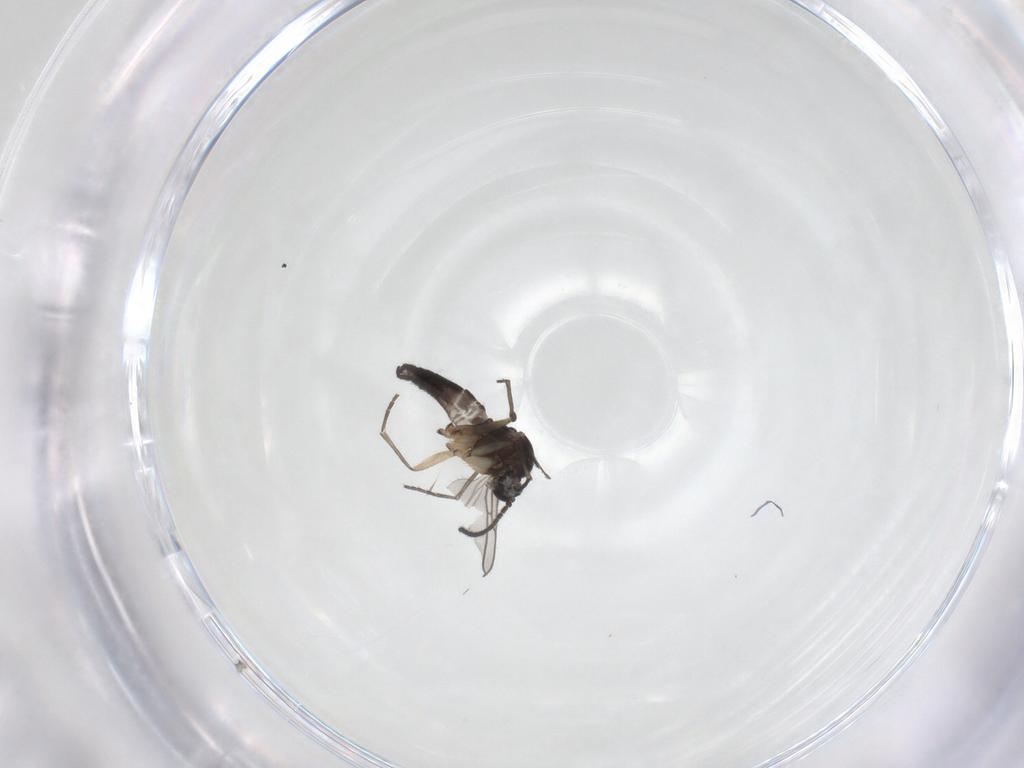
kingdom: Animalia
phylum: Arthropoda
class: Insecta
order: Diptera
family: Sciaridae
